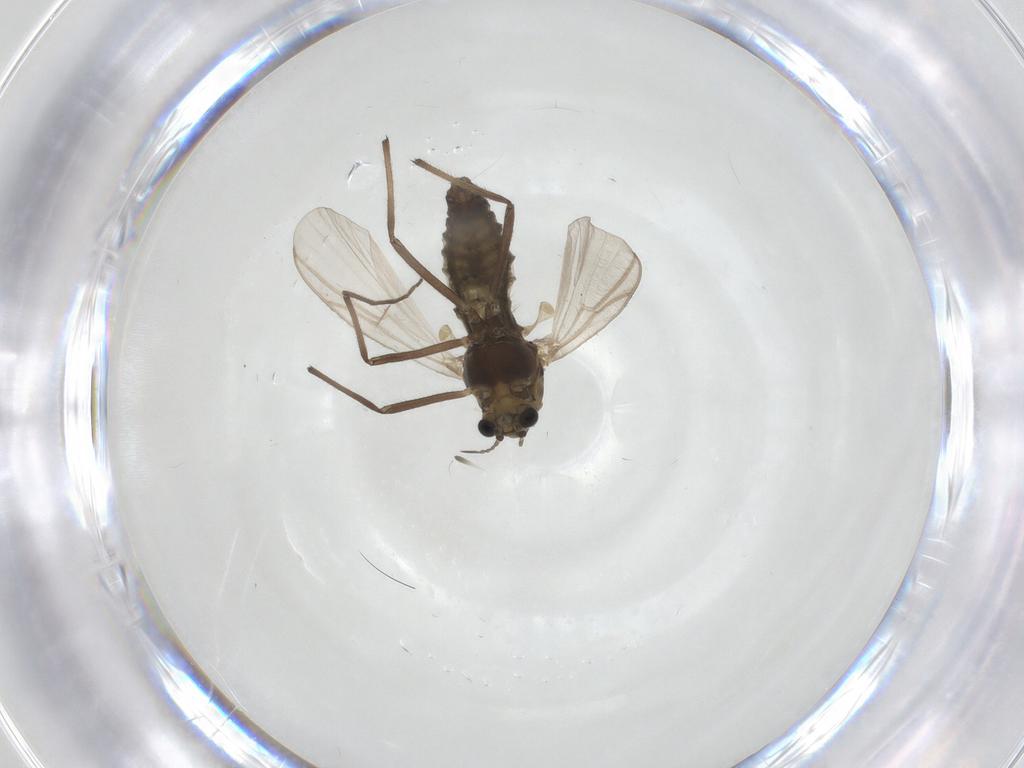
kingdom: Animalia
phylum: Arthropoda
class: Insecta
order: Diptera
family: Chironomidae
